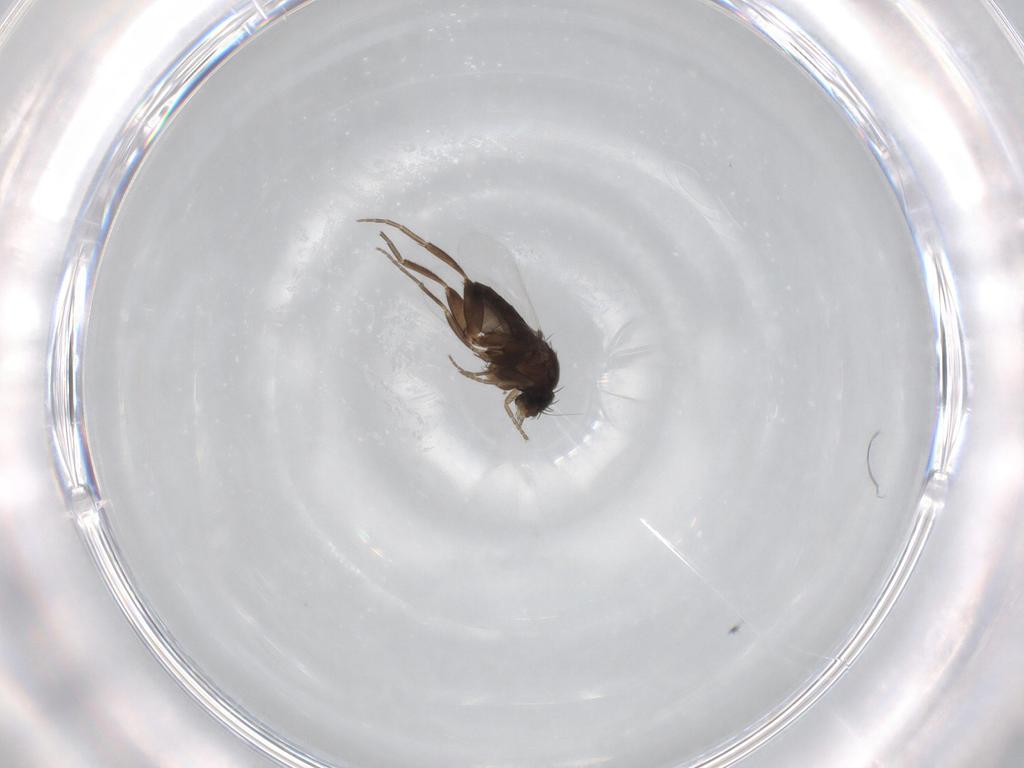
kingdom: Animalia
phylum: Arthropoda
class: Insecta
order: Diptera
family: Phoridae
